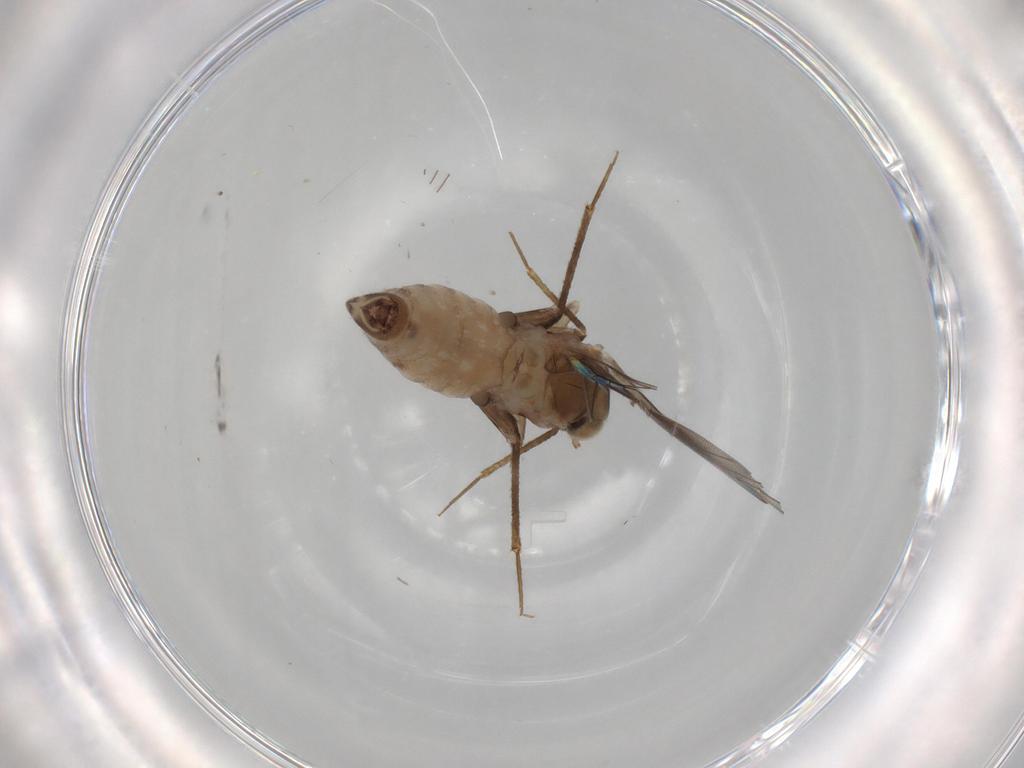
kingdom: Animalia
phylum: Arthropoda
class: Insecta
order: Psocodea
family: Lepidopsocidae
